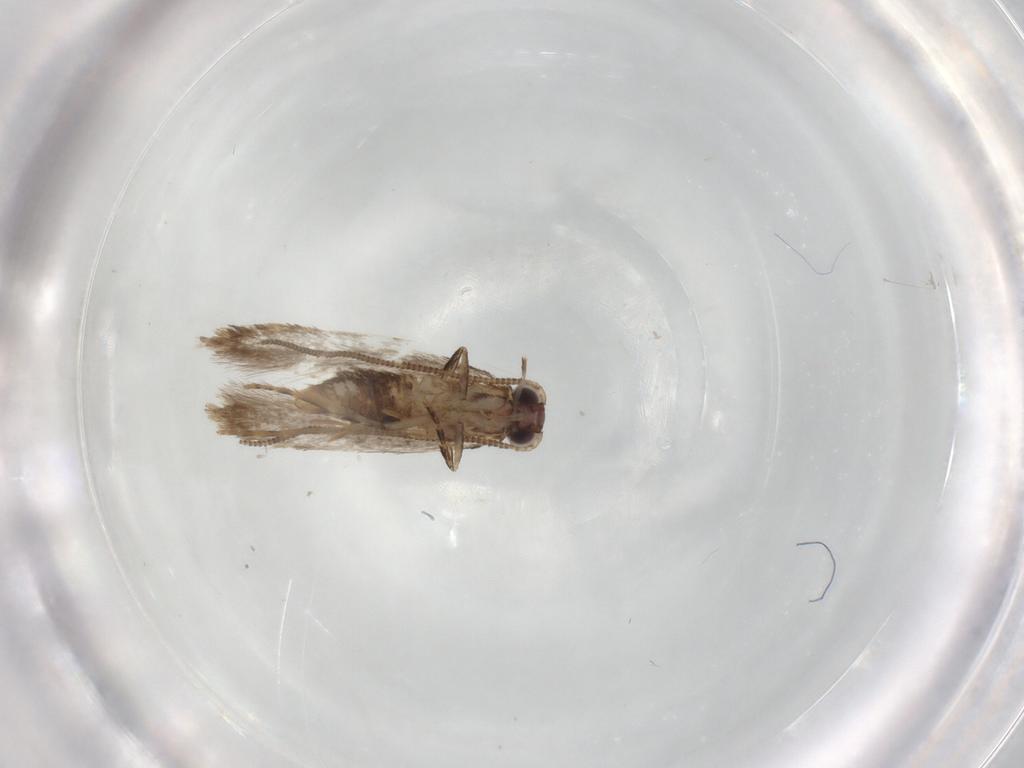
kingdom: Animalia
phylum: Arthropoda
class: Insecta
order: Lepidoptera
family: Tineidae
